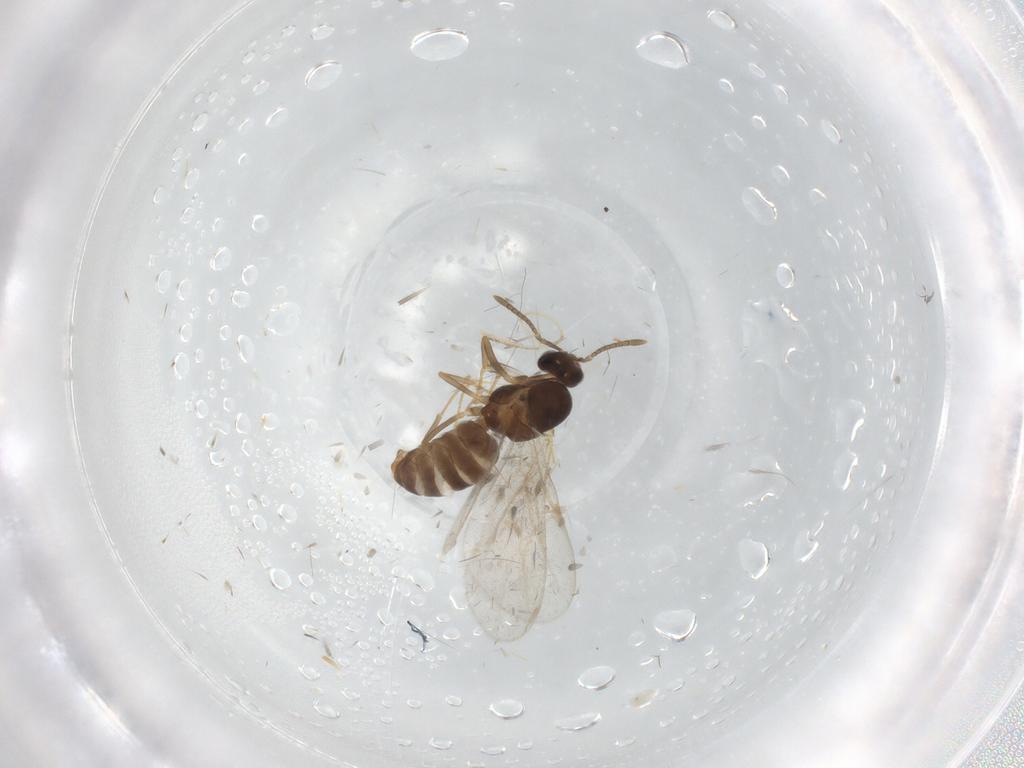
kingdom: Animalia
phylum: Arthropoda
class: Insecta
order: Hymenoptera
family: Formicidae
